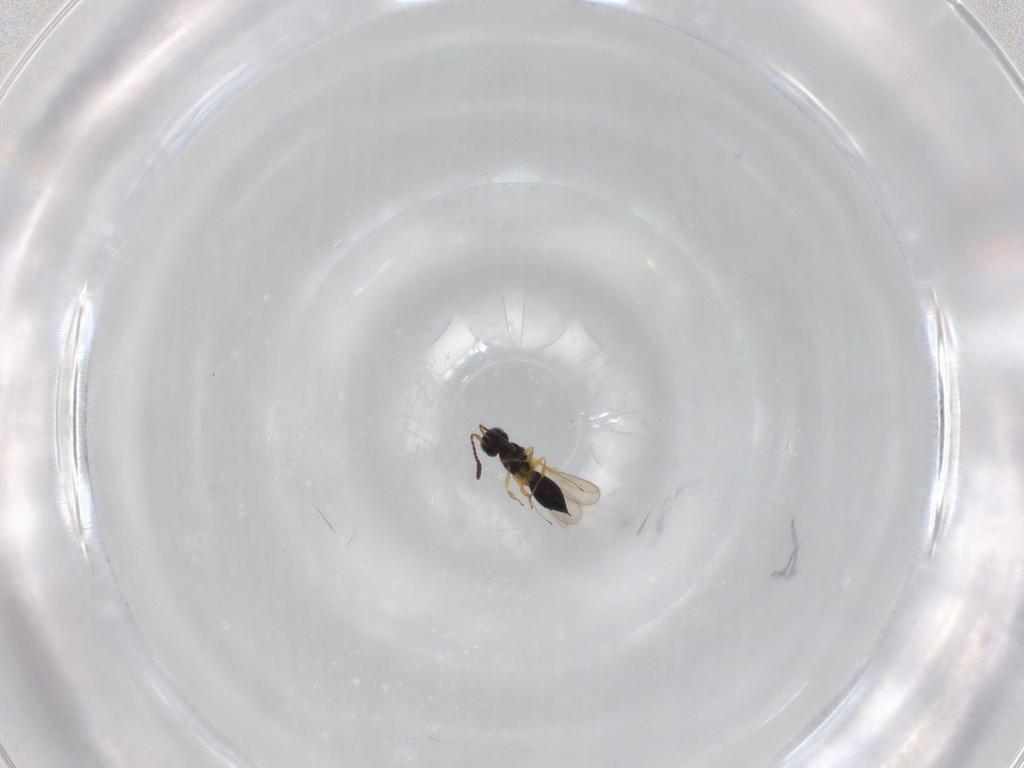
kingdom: Animalia
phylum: Arthropoda
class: Insecta
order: Hymenoptera
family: Scelionidae
